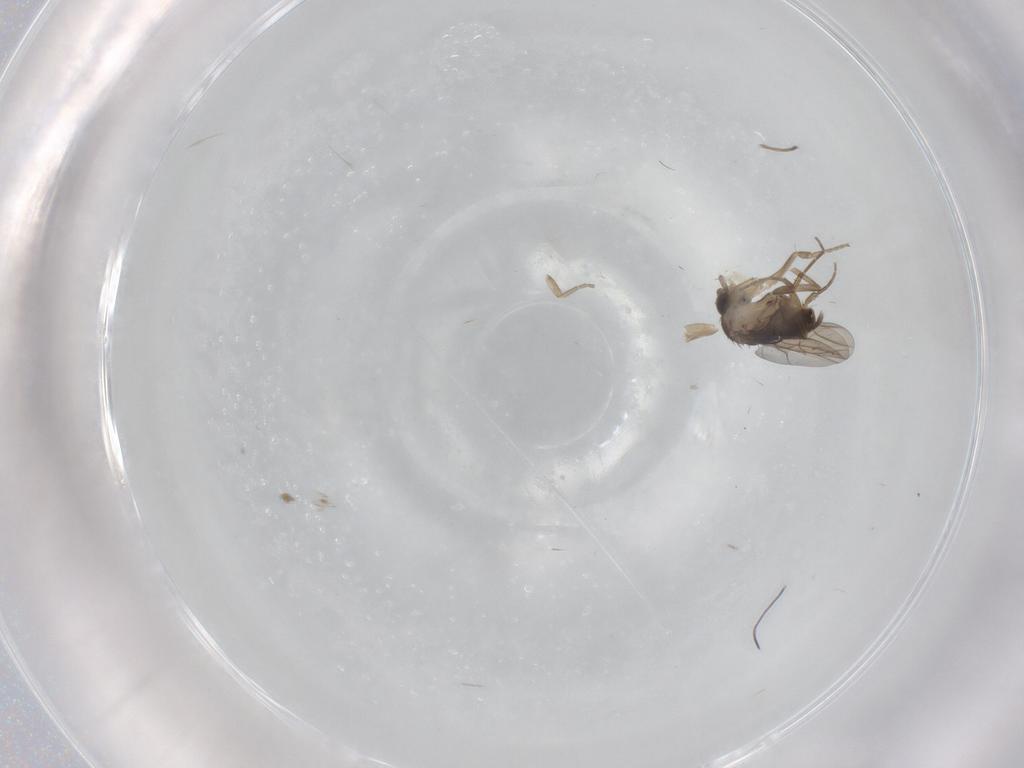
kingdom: Animalia
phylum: Arthropoda
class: Insecta
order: Diptera
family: Phoridae
